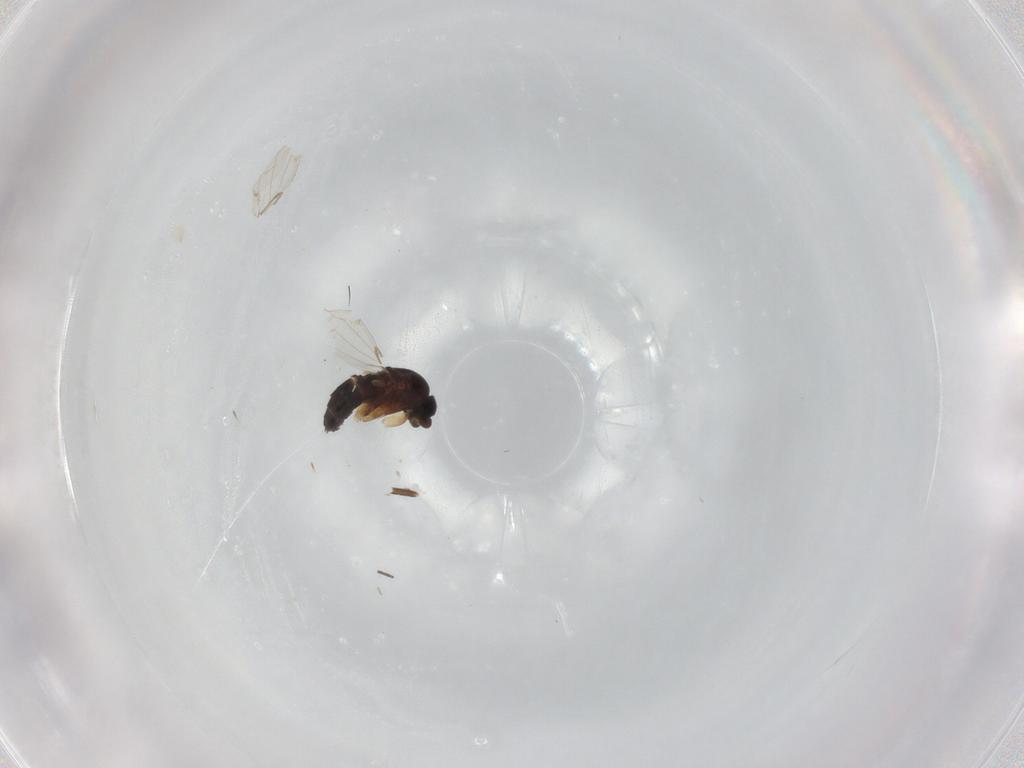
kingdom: Animalia
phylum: Arthropoda
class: Insecta
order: Diptera
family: Phoridae
